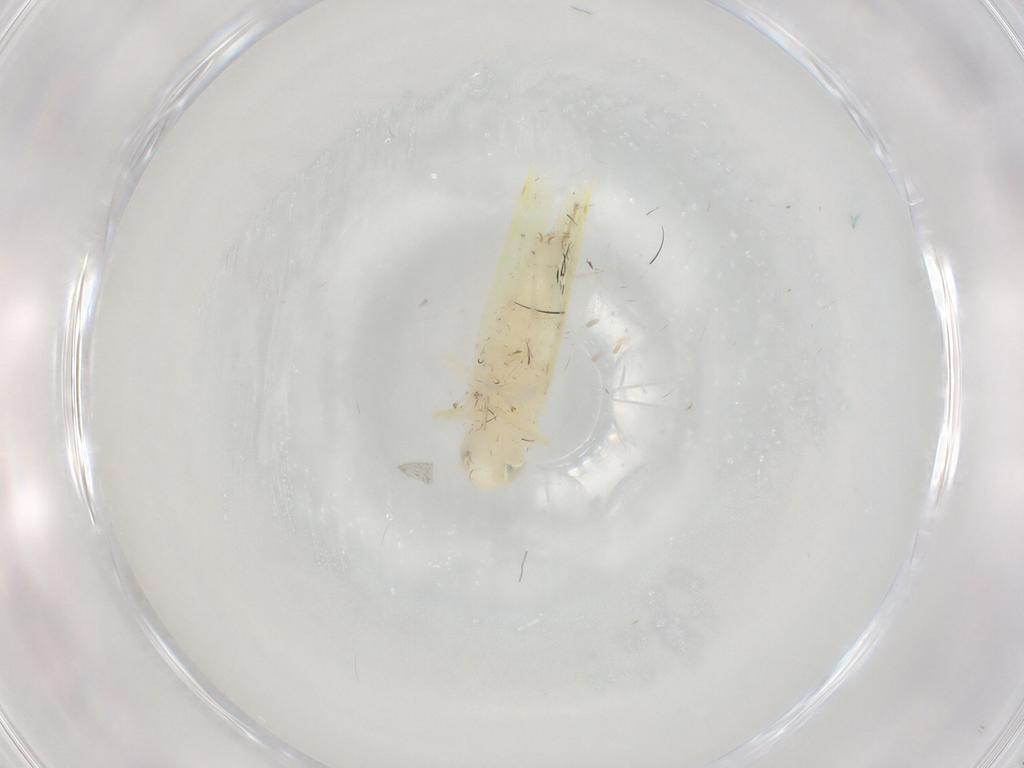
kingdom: Animalia
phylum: Arthropoda
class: Insecta
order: Hemiptera
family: Cicadellidae
